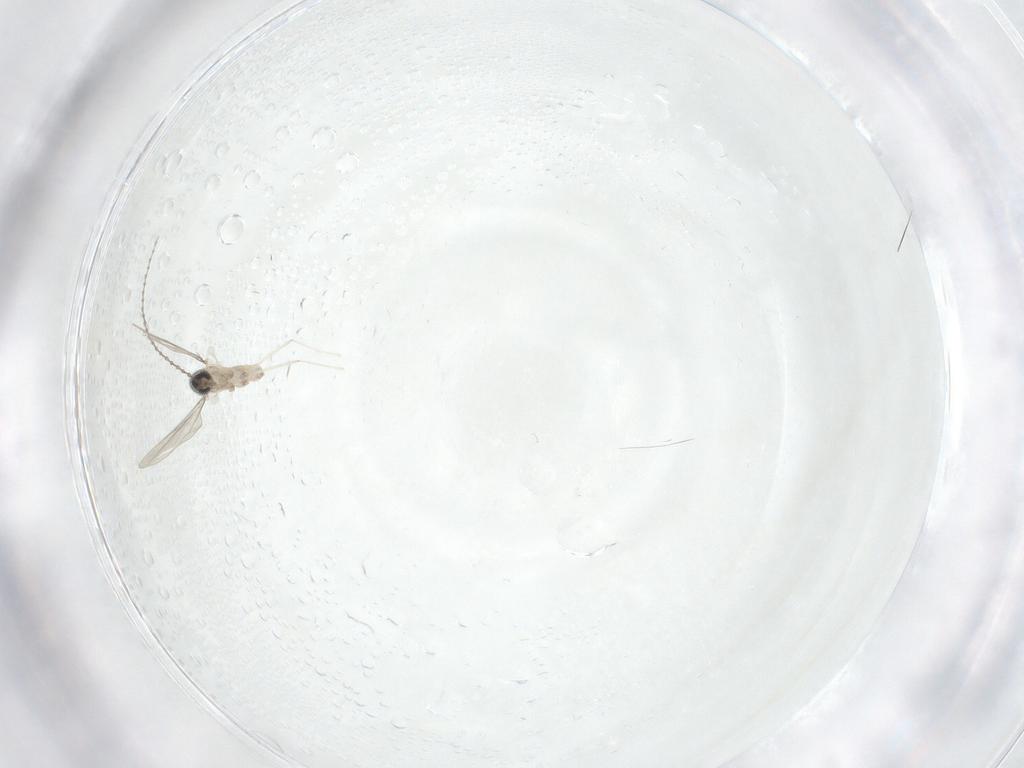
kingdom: Animalia
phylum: Arthropoda
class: Insecta
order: Diptera
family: Cecidomyiidae
